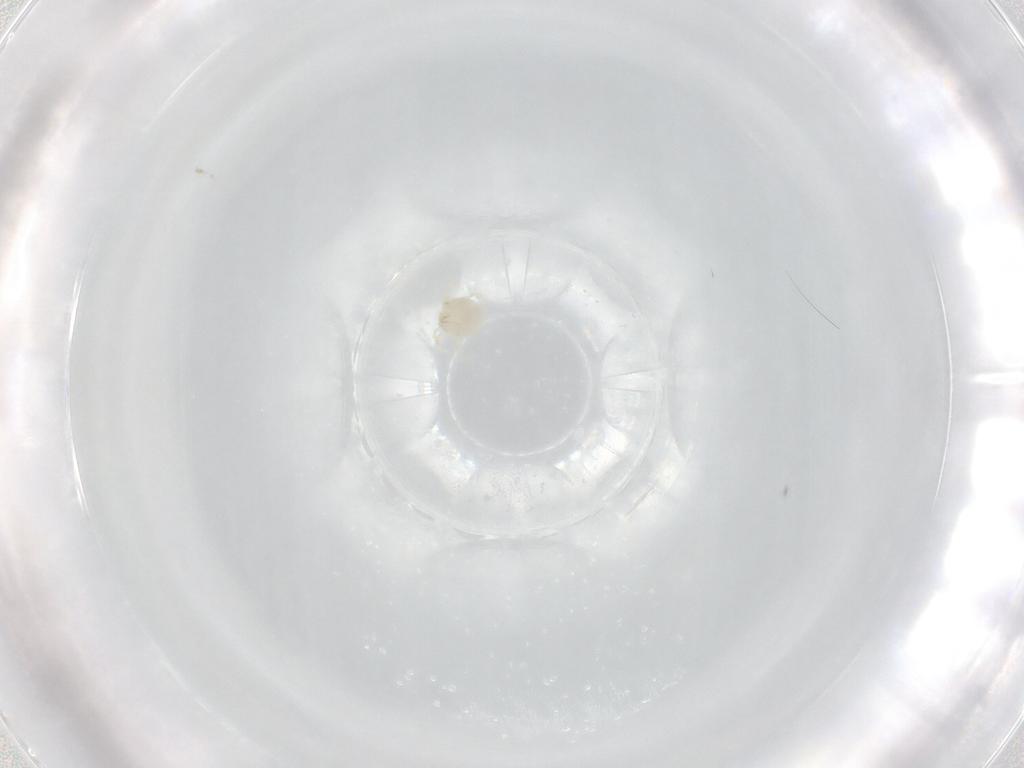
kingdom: Animalia
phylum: Arthropoda
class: Arachnida
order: Trombidiformes
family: Sperchontidae
